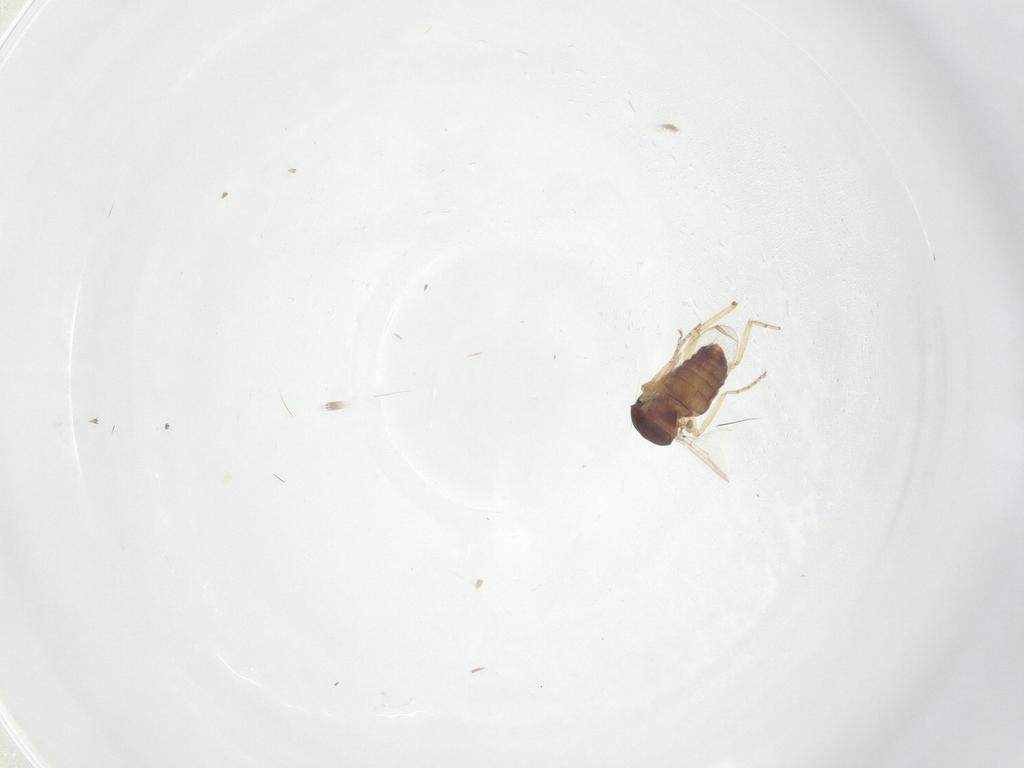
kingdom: Animalia
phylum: Arthropoda
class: Insecta
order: Diptera
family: Ceratopogonidae
